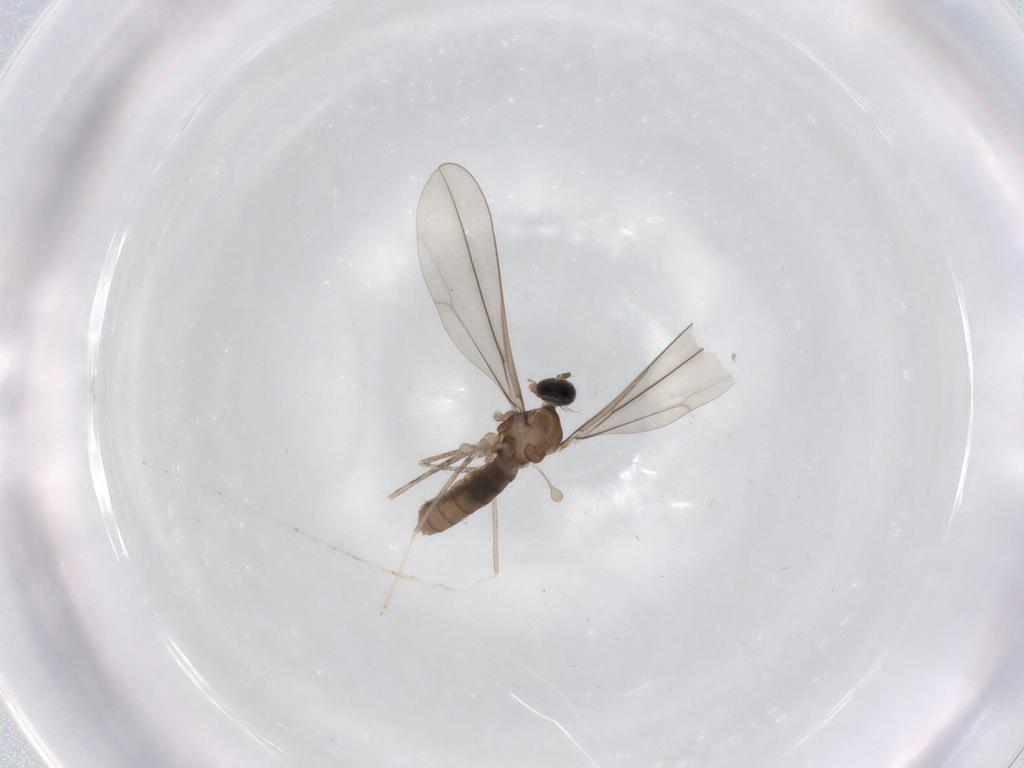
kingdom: Animalia
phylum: Arthropoda
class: Insecta
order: Diptera
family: Cecidomyiidae
